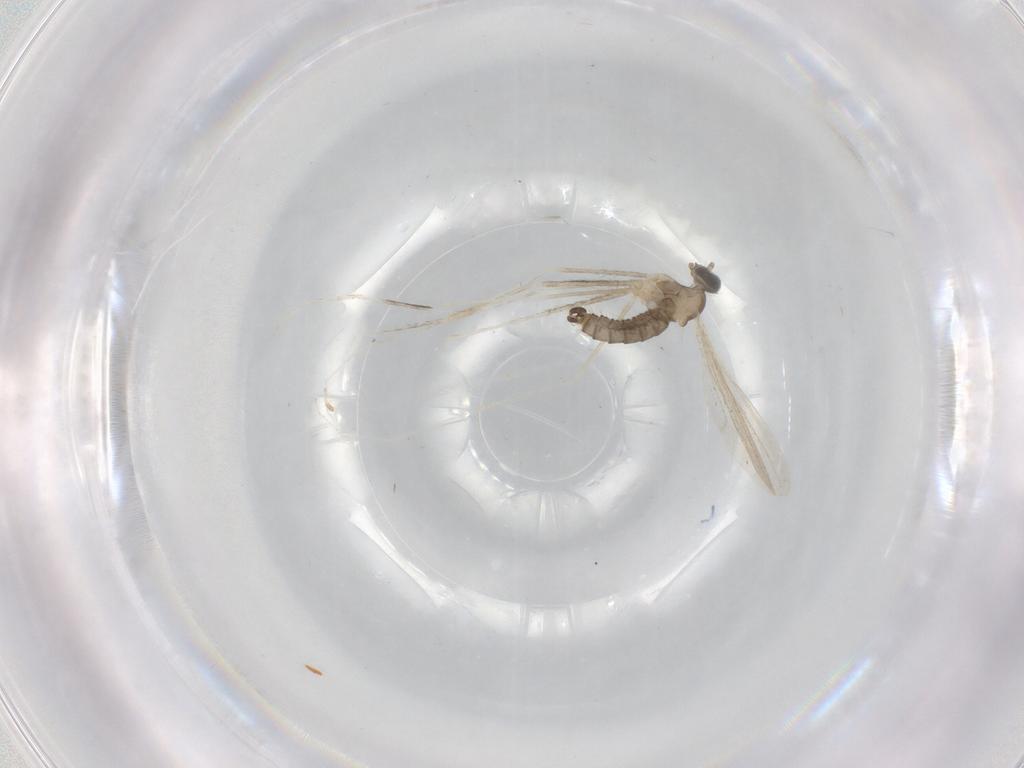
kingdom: Animalia
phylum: Arthropoda
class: Insecta
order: Diptera
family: Cecidomyiidae
